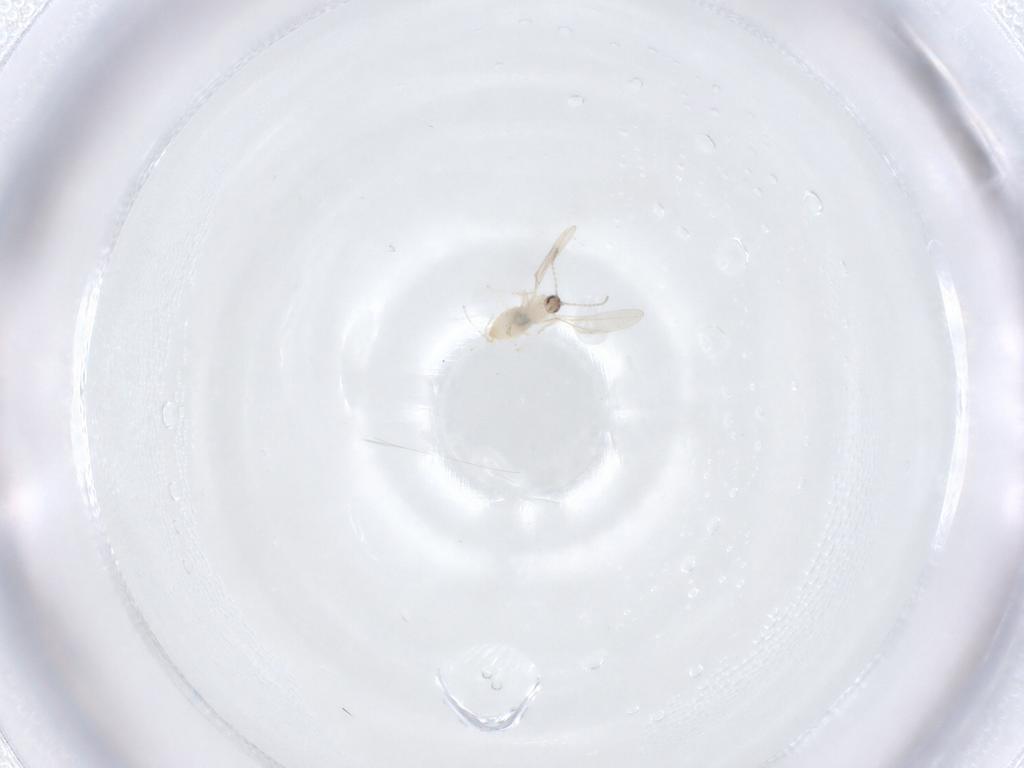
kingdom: Animalia
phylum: Arthropoda
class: Insecta
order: Diptera
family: Cecidomyiidae
